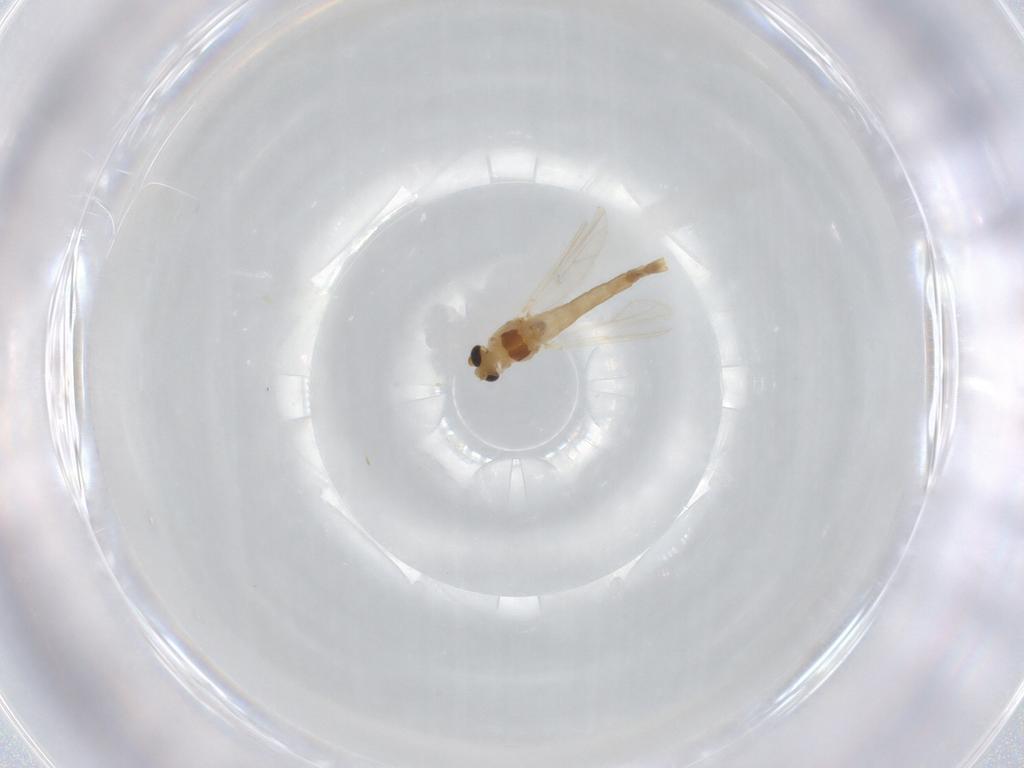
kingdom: Animalia
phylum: Arthropoda
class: Insecta
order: Diptera
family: Chironomidae
